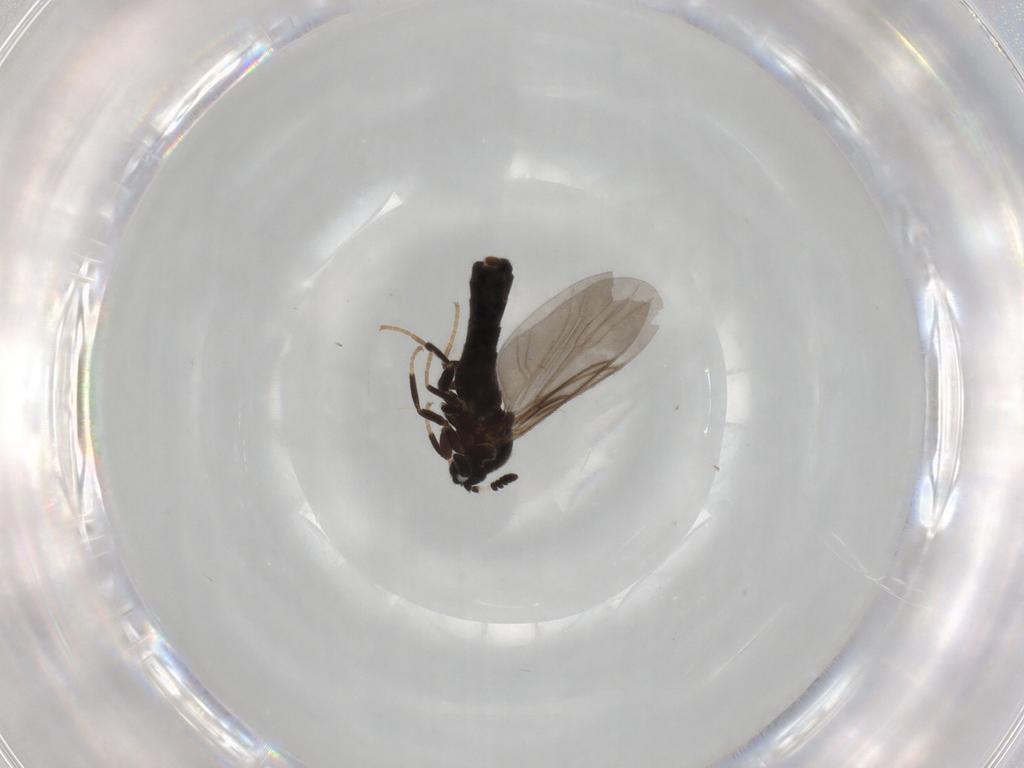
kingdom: Animalia
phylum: Arthropoda
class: Insecta
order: Diptera
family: Scatopsidae
